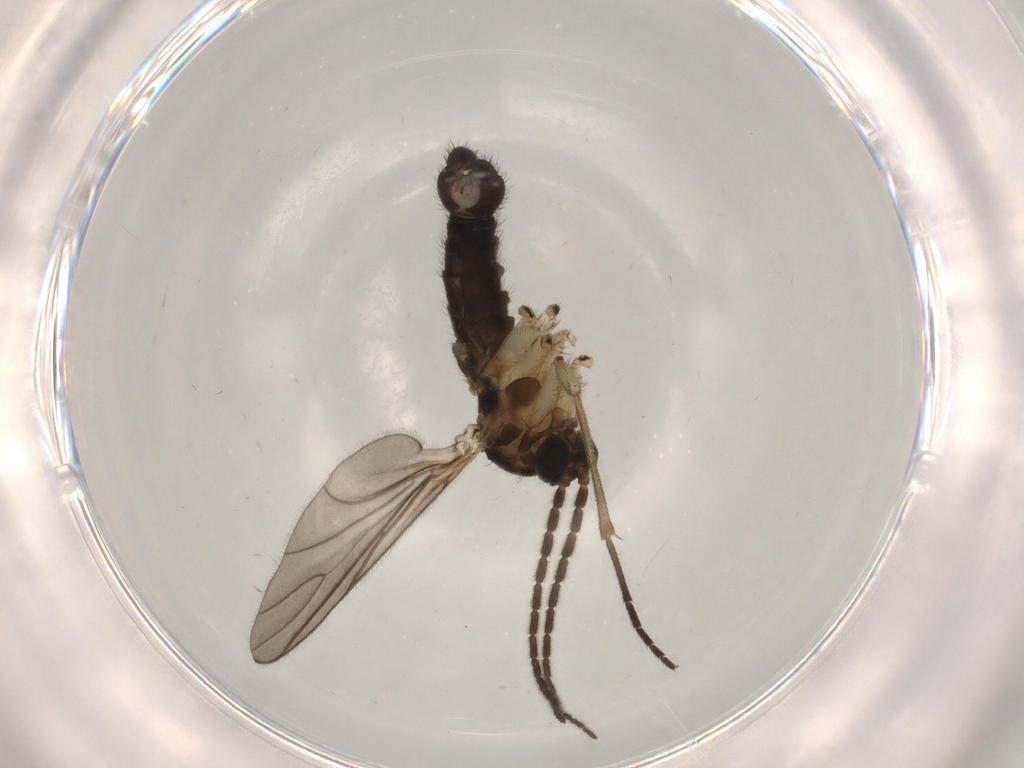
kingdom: Animalia
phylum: Arthropoda
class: Insecta
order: Diptera
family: Sciaridae
